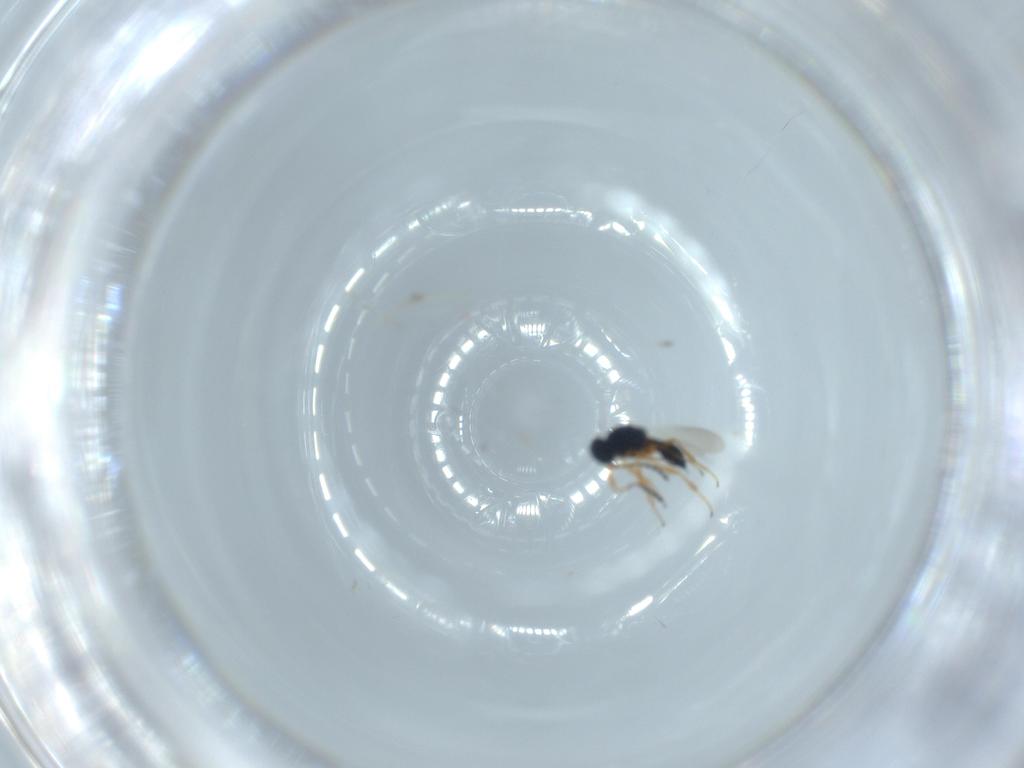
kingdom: Animalia
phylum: Arthropoda
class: Insecta
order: Hymenoptera
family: Platygastridae
